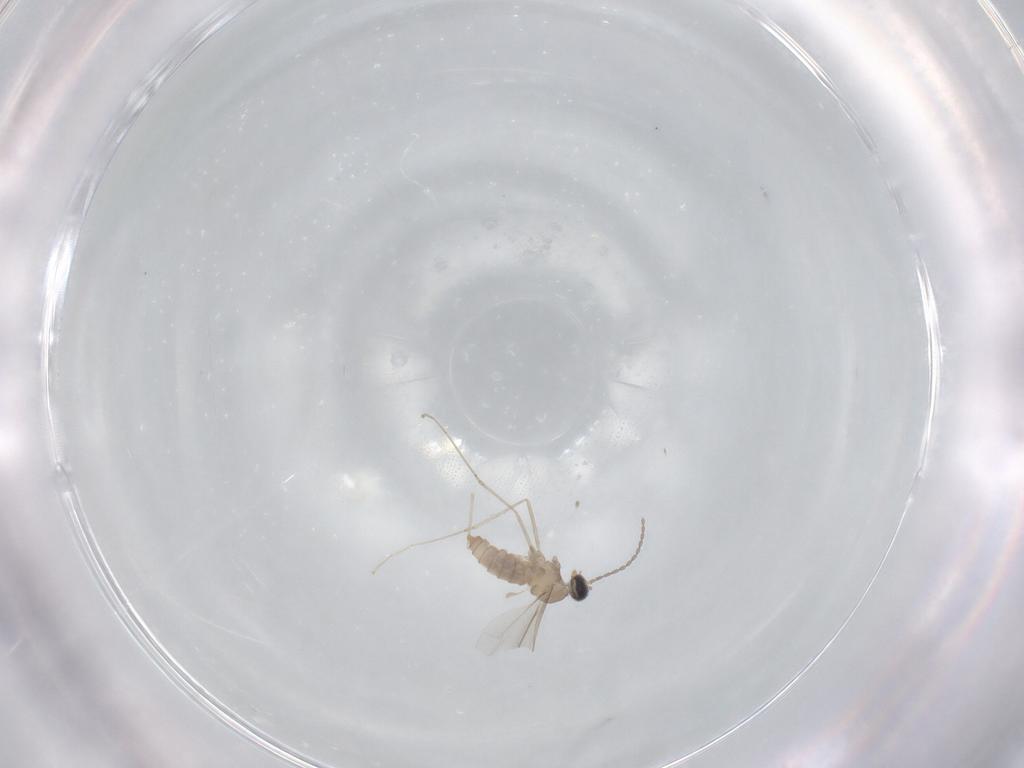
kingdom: Animalia
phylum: Arthropoda
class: Insecta
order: Diptera
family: Cecidomyiidae
